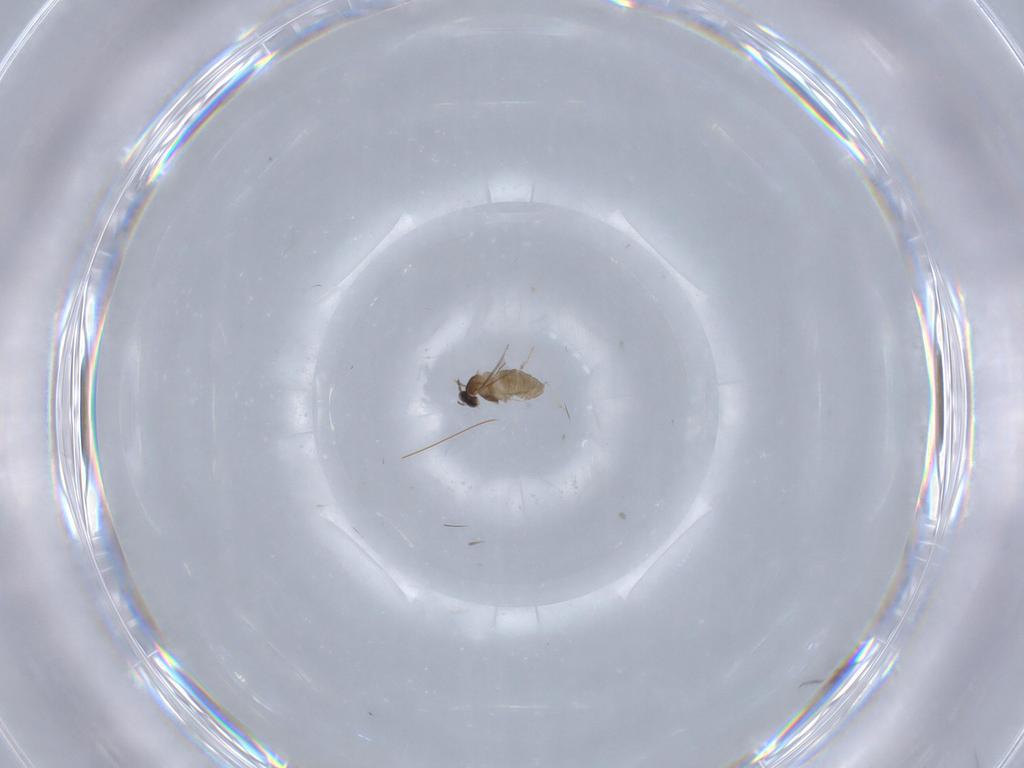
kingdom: Animalia
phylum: Arthropoda
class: Insecta
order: Diptera
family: Cecidomyiidae
